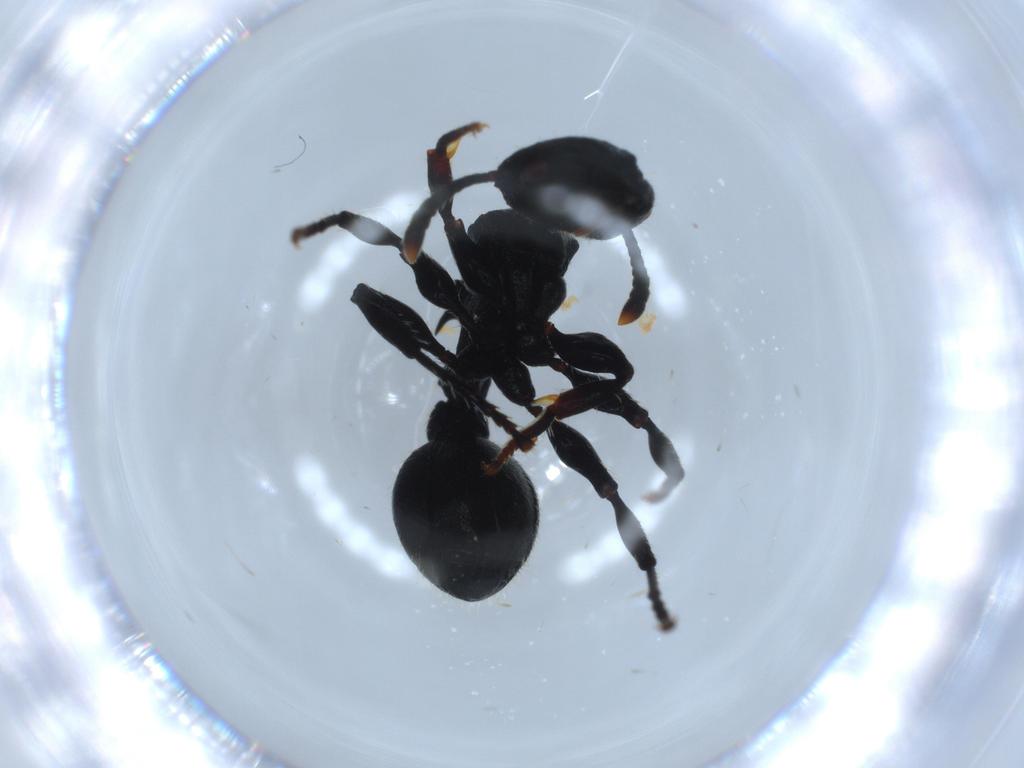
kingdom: Animalia
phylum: Arthropoda
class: Insecta
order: Hymenoptera
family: Formicidae
